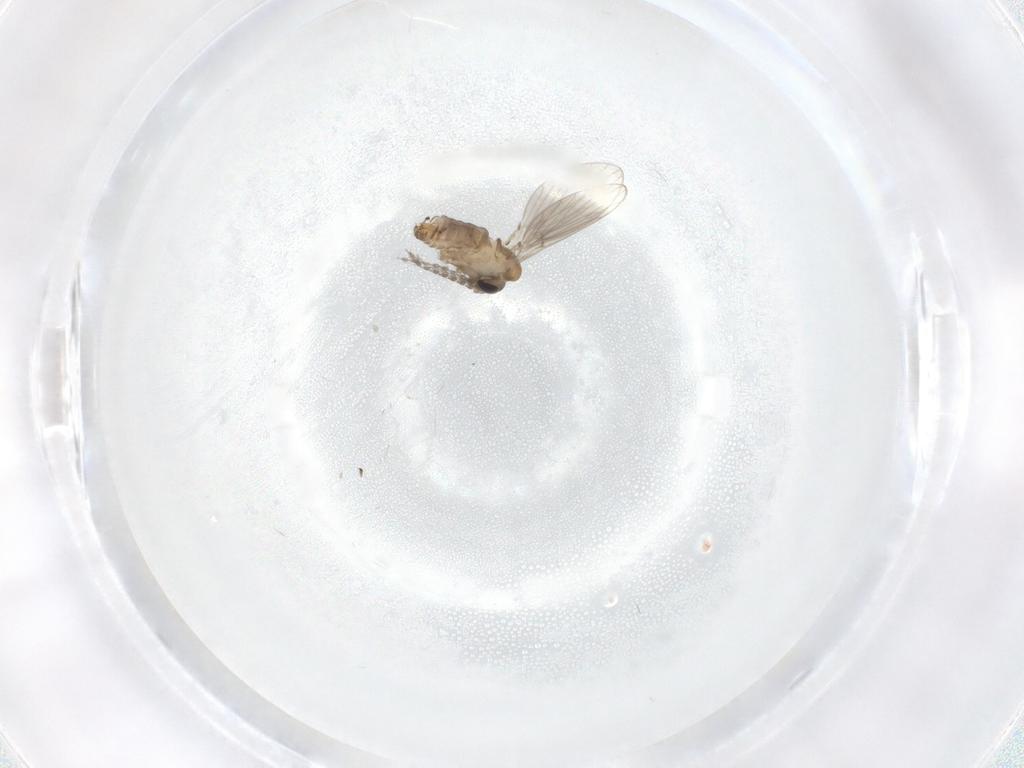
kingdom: Animalia
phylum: Arthropoda
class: Insecta
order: Diptera
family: Psychodidae
